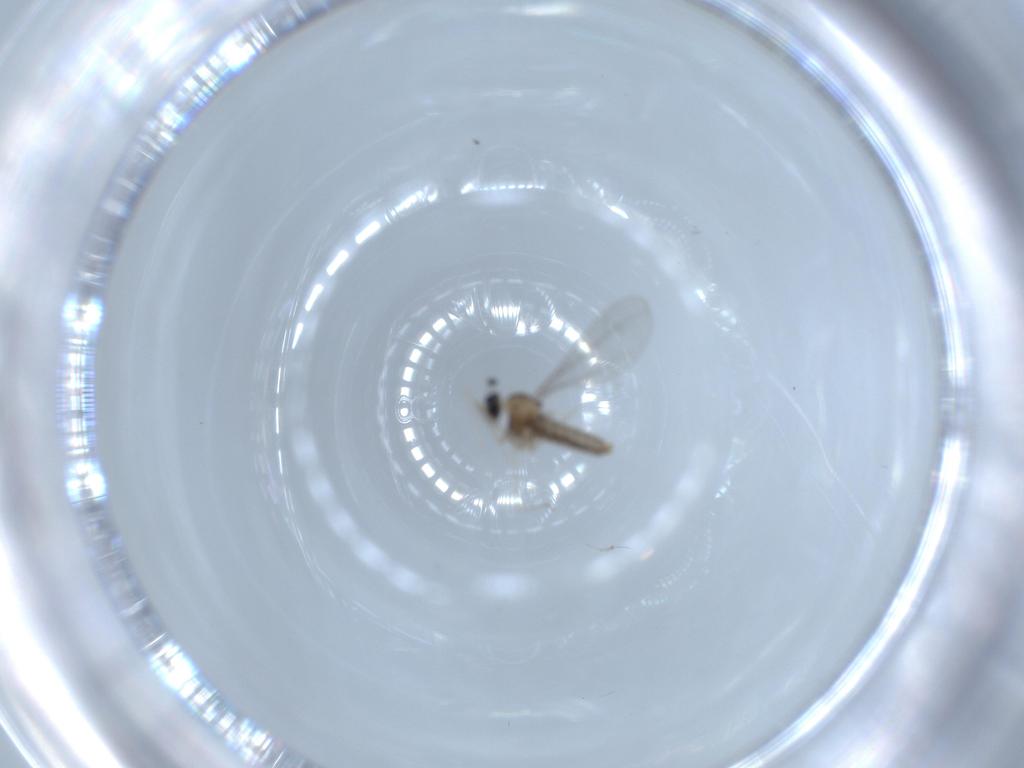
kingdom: Animalia
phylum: Arthropoda
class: Insecta
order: Diptera
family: Cecidomyiidae
